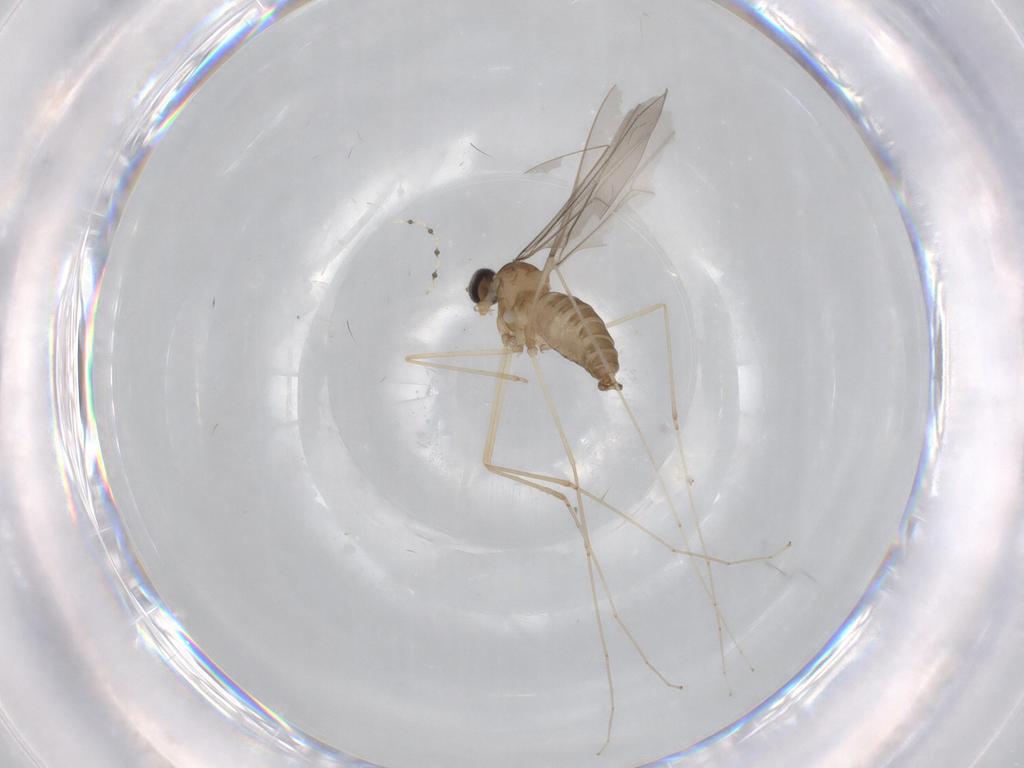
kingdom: Animalia
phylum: Arthropoda
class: Insecta
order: Diptera
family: Cecidomyiidae
